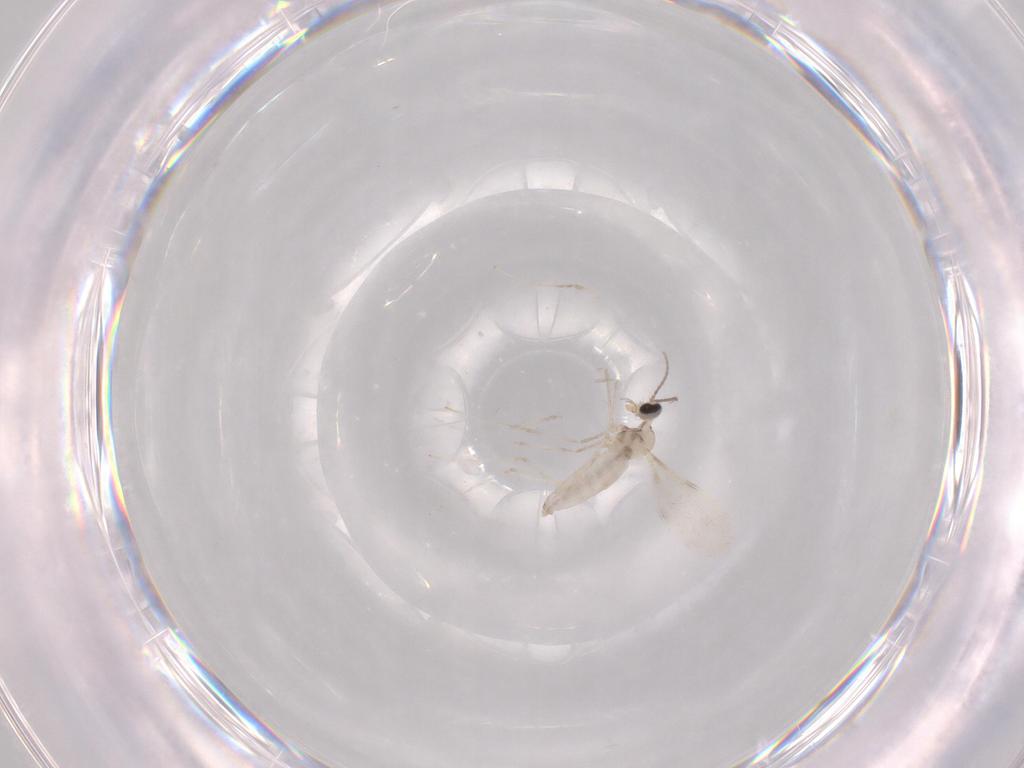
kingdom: Animalia
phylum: Arthropoda
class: Insecta
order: Diptera
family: Cecidomyiidae
